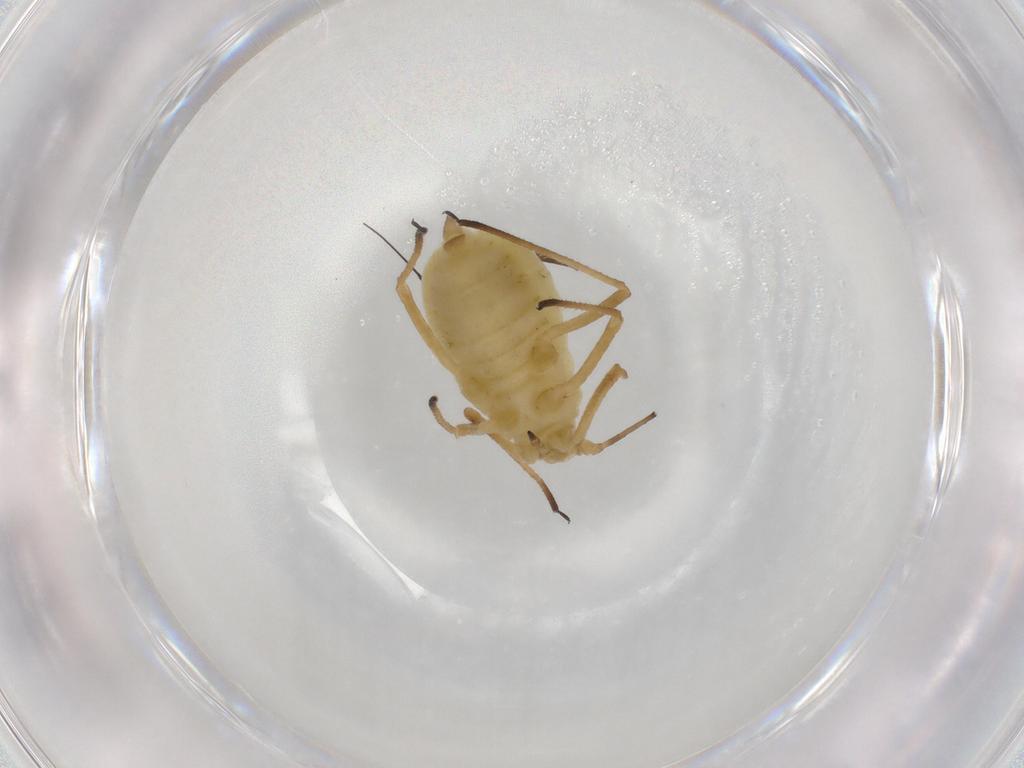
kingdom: Animalia
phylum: Arthropoda
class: Insecta
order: Hemiptera
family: Aphididae
